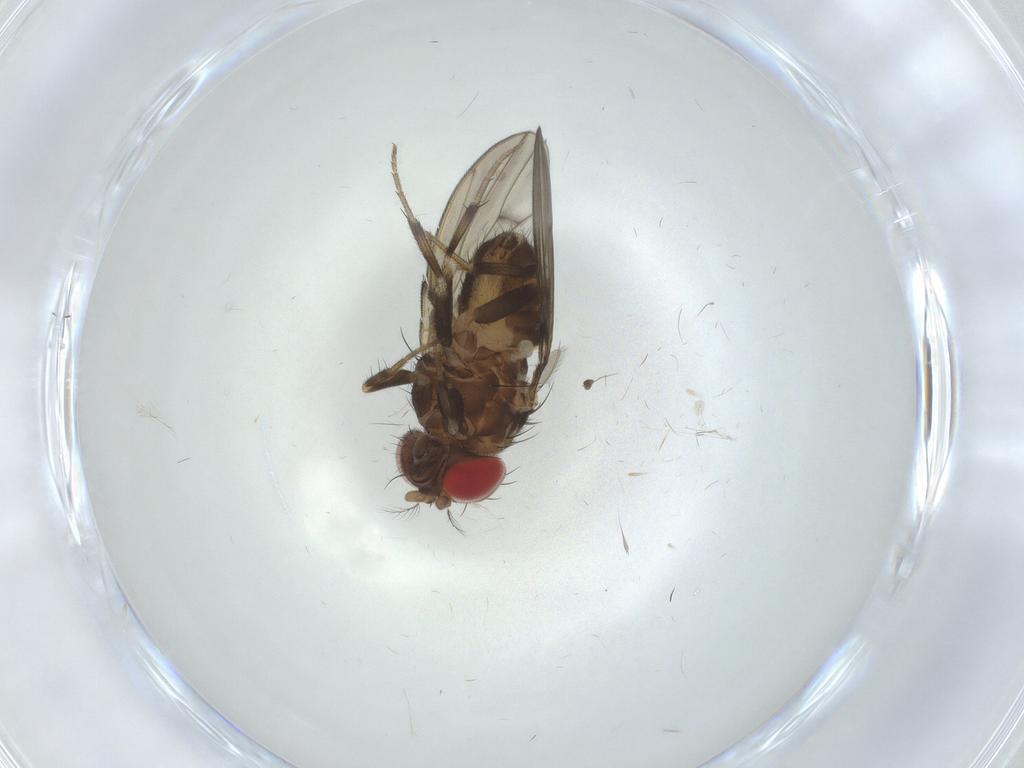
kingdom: Animalia
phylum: Arthropoda
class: Insecta
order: Diptera
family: Drosophilidae
